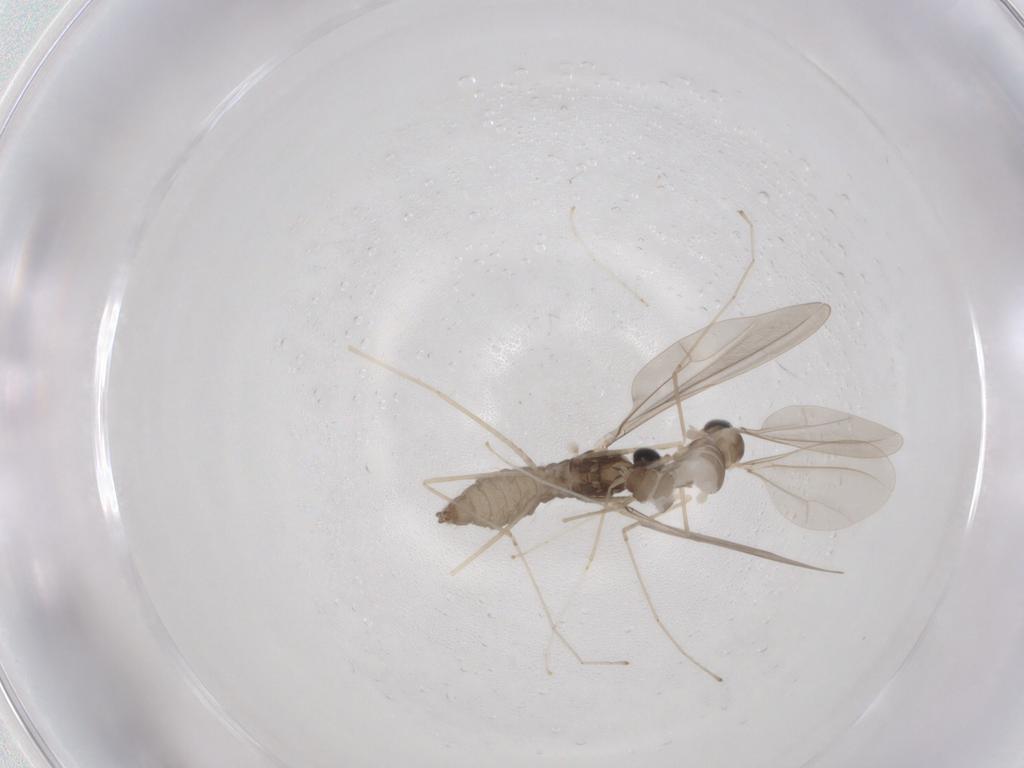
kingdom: Animalia
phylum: Arthropoda
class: Insecta
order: Diptera
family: Cecidomyiidae
